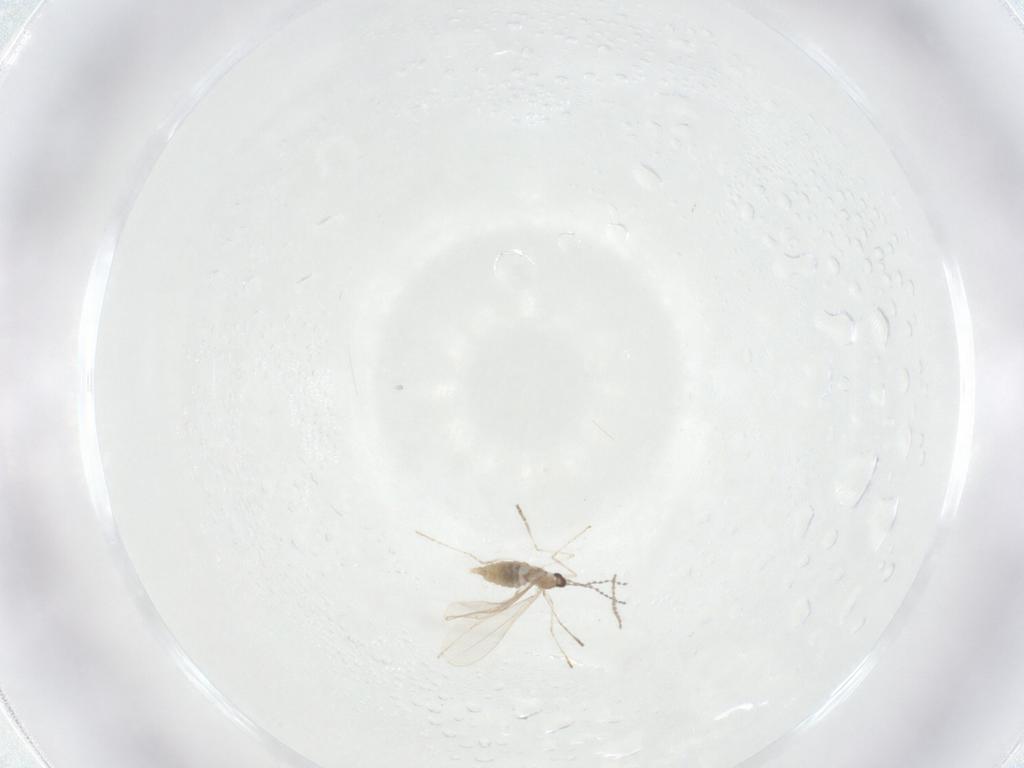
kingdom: Animalia
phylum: Arthropoda
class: Insecta
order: Diptera
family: Cecidomyiidae
